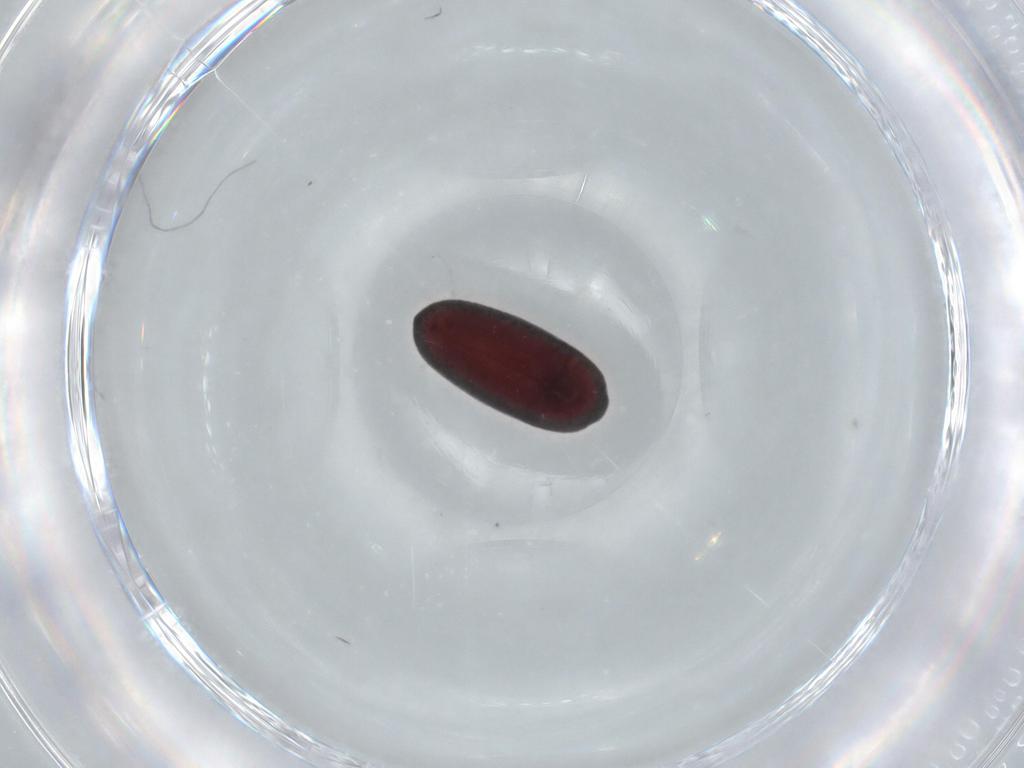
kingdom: Animalia
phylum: Arthropoda
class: Insecta
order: Coleoptera
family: Throscidae
